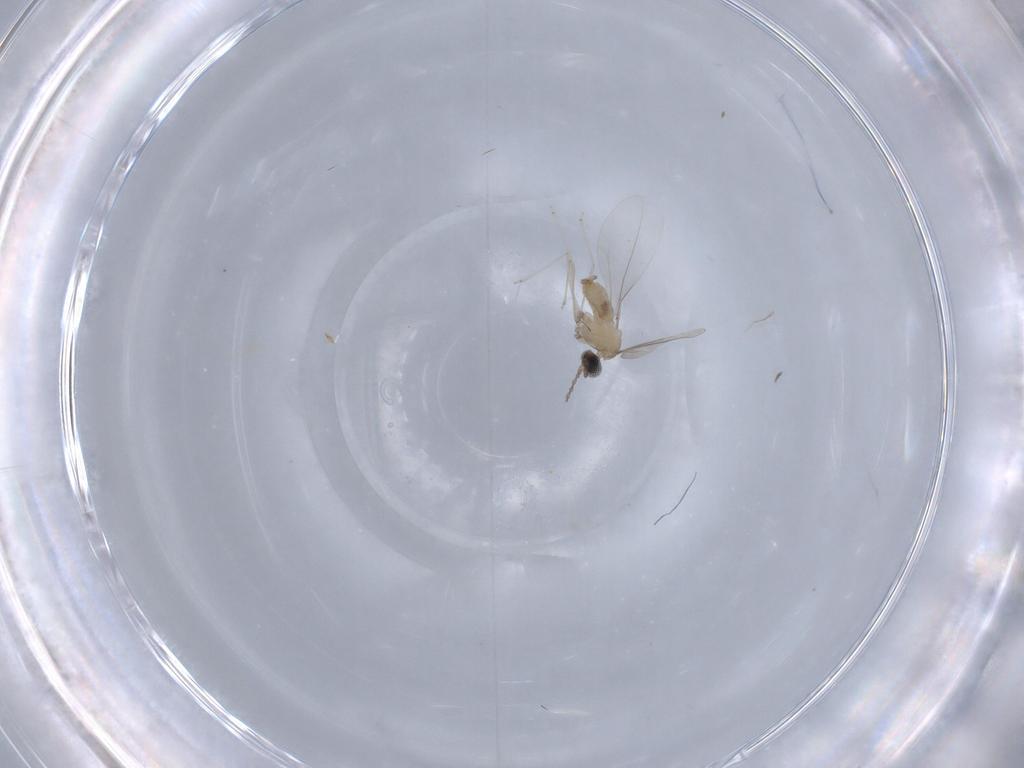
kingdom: Animalia
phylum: Arthropoda
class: Insecta
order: Diptera
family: Cecidomyiidae
